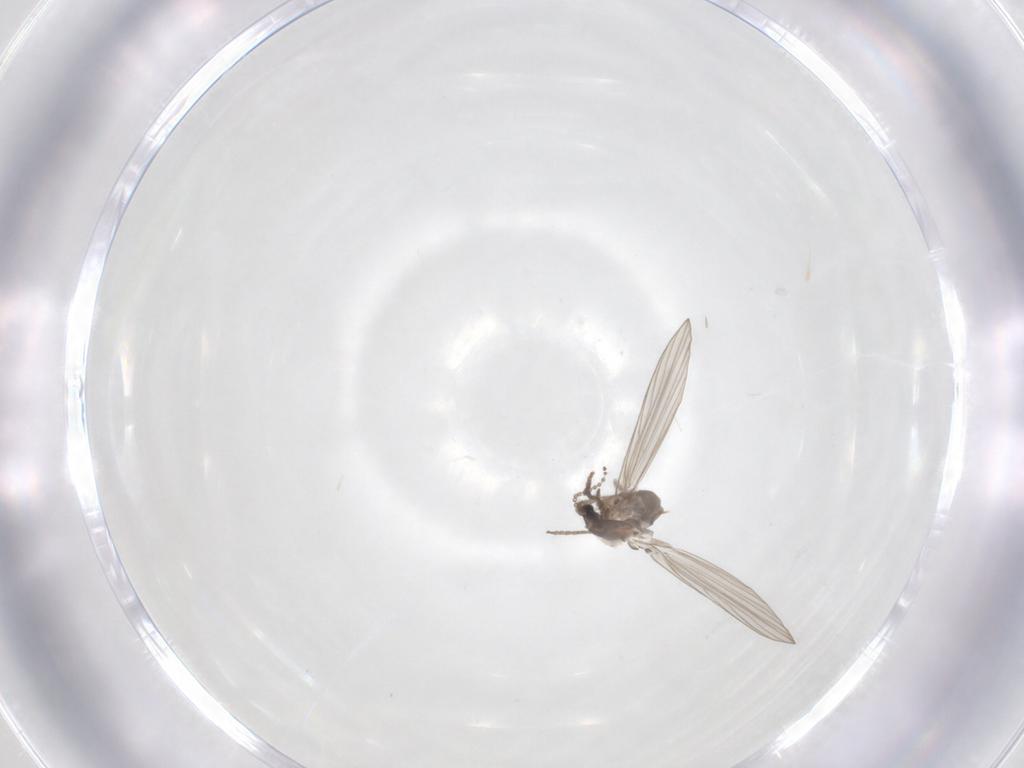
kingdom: Animalia
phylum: Arthropoda
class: Insecta
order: Diptera
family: Psychodidae
